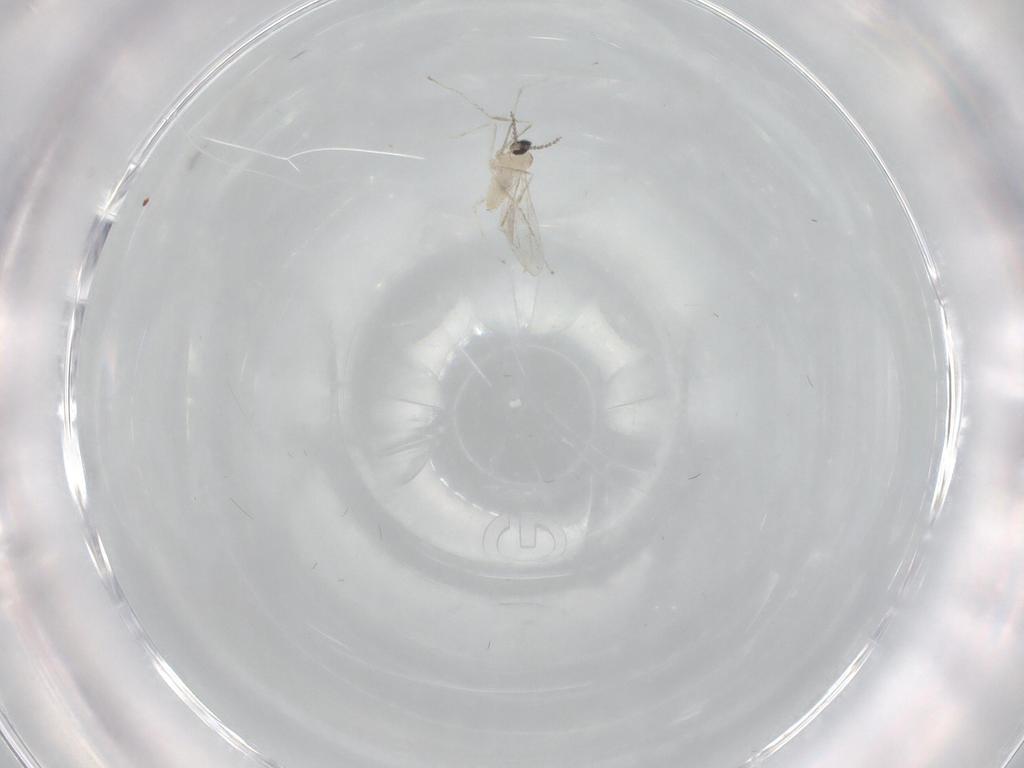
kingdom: Animalia
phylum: Arthropoda
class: Insecta
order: Diptera
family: Cecidomyiidae
